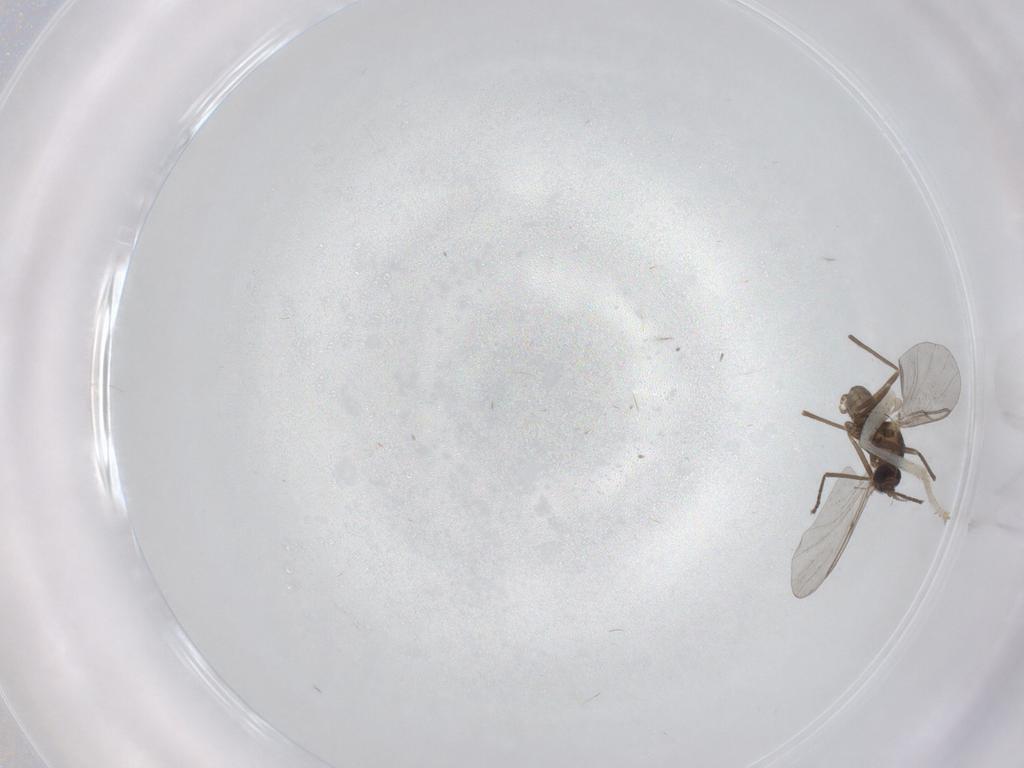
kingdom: Animalia
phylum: Arthropoda
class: Insecta
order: Diptera
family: Cecidomyiidae
